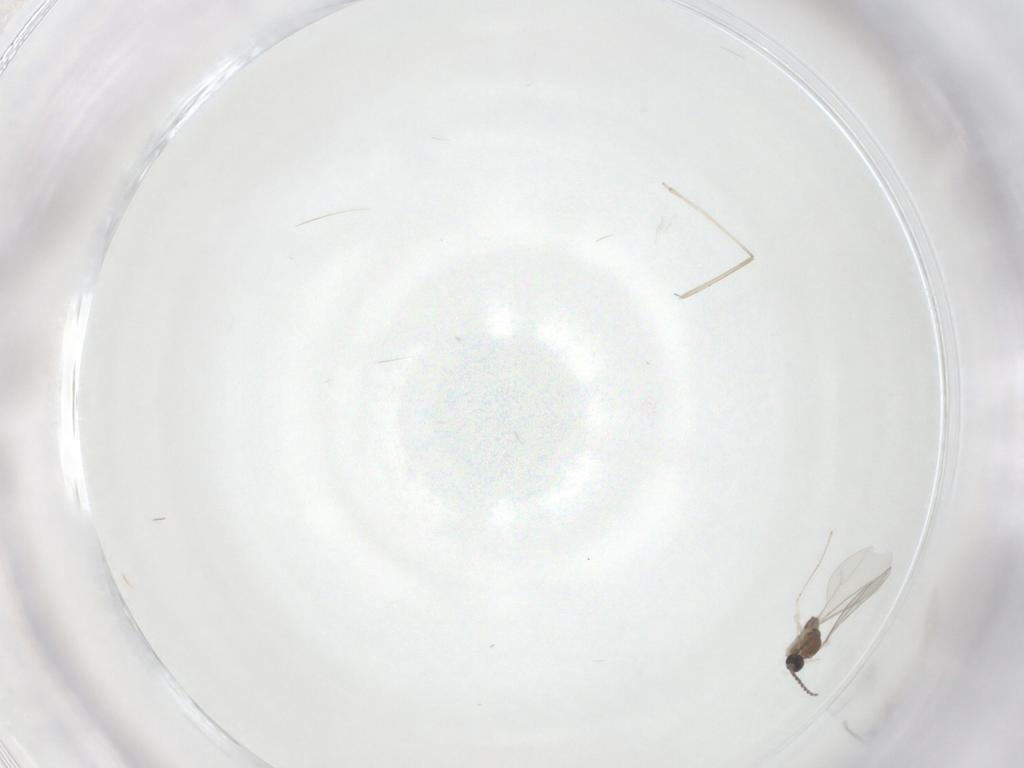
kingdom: Animalia
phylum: Arthropoda
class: Insecta
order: Diptera
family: Cecidomyiidae
